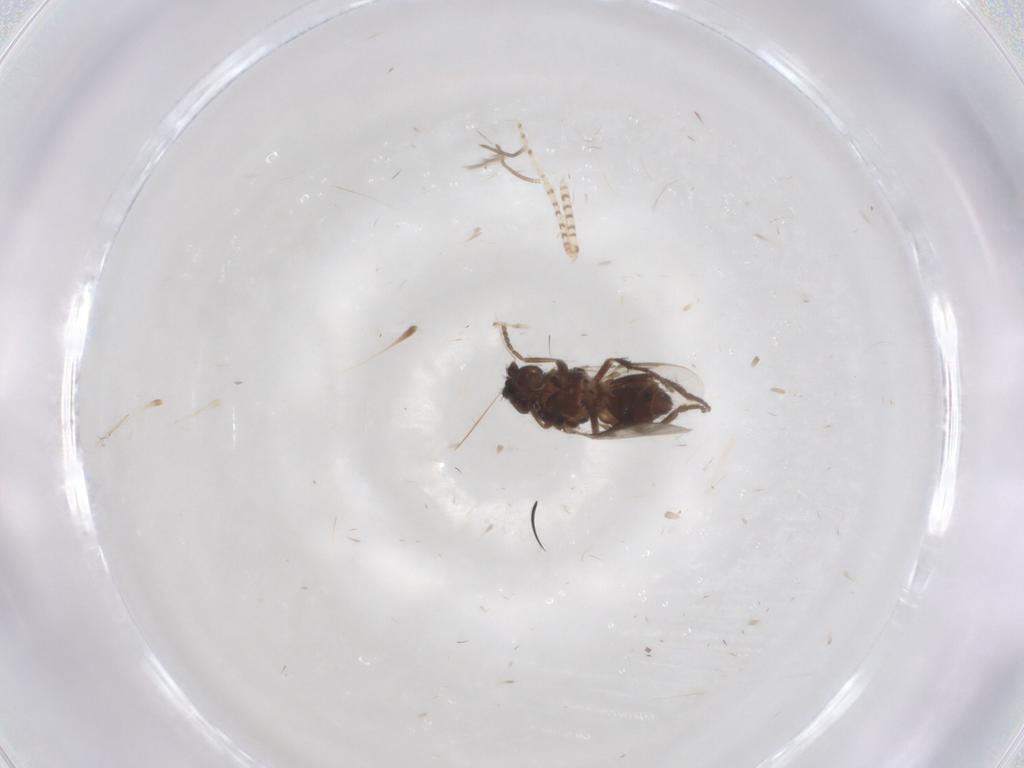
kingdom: Animalia
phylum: Arthropoda
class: Insecta
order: Diptera
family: Sphaeroceridae
